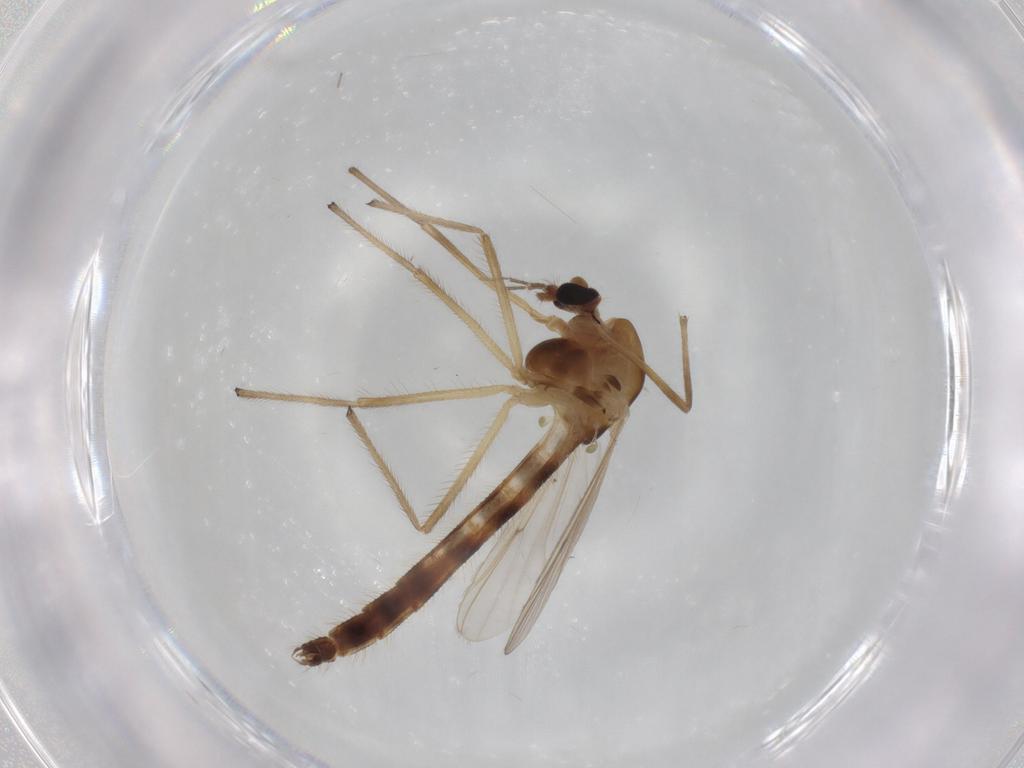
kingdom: Animalia
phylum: Arthropoda
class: Insecta
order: Diptera
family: Chironomidae
